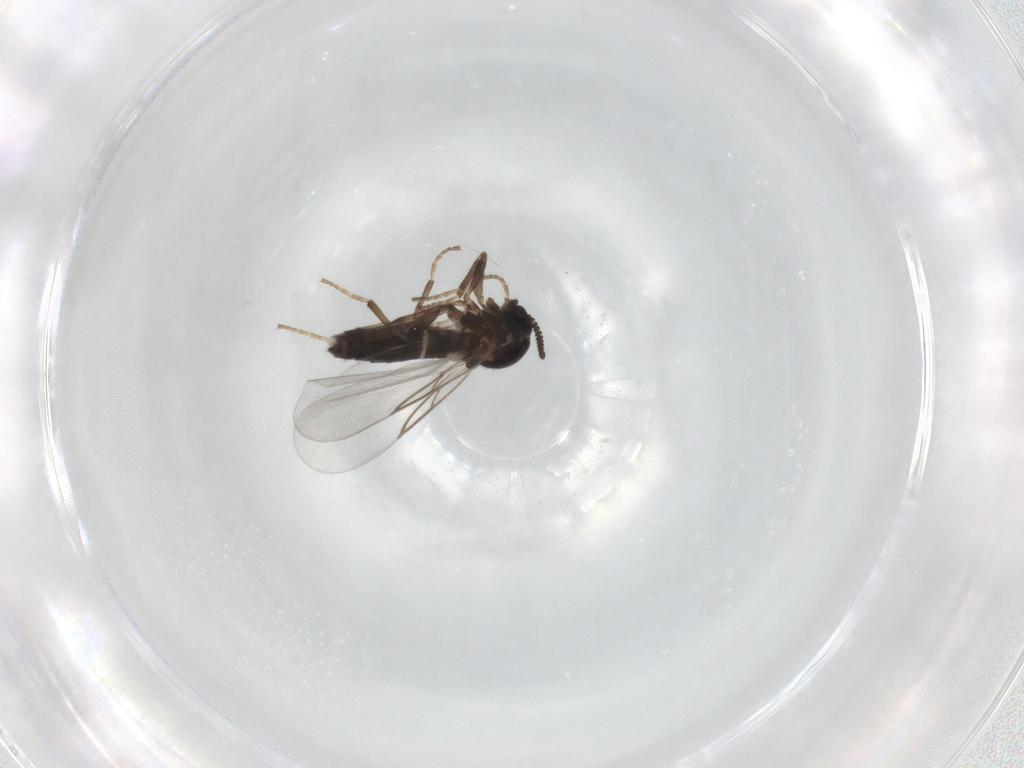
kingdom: Animalia
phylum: Arthropoda
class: Insecta
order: Diptera
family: Scatopsidae
